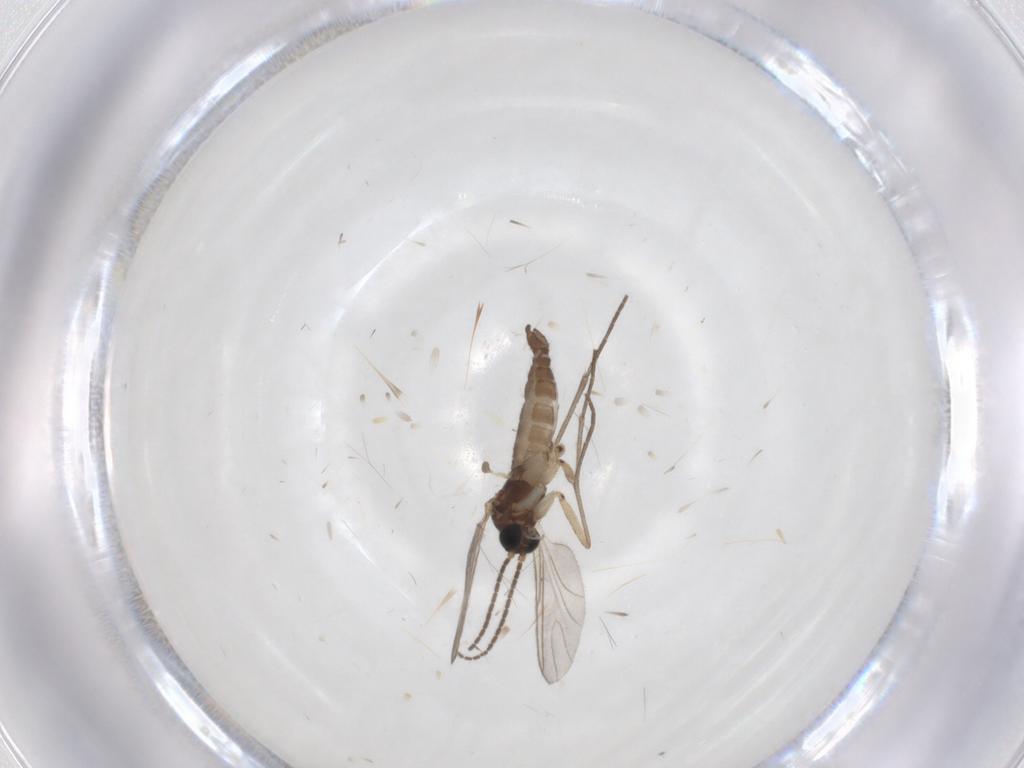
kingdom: Animalia
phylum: Arthropoda
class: Insecta
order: Diptera
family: Sciaridae
